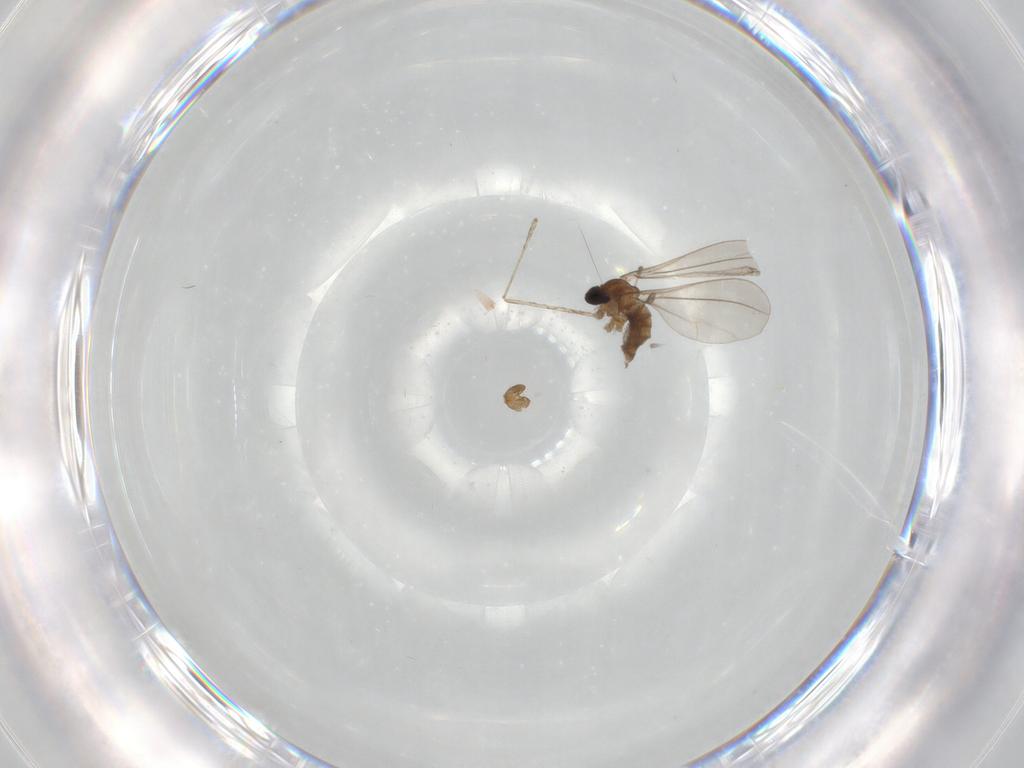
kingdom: Animalia
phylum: Arthropoda
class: Insecta
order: Diptera
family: Cecidomyiidae
